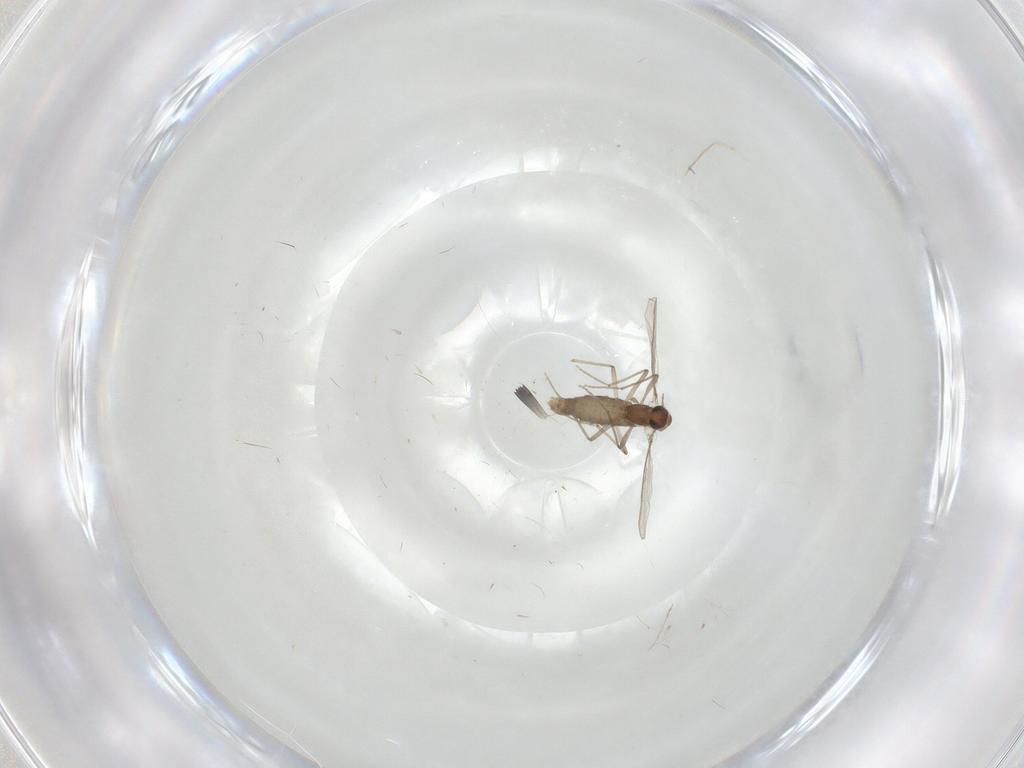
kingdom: Animalia
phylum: Arthropoda
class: Insecta
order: Diptera
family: Chironomidae
